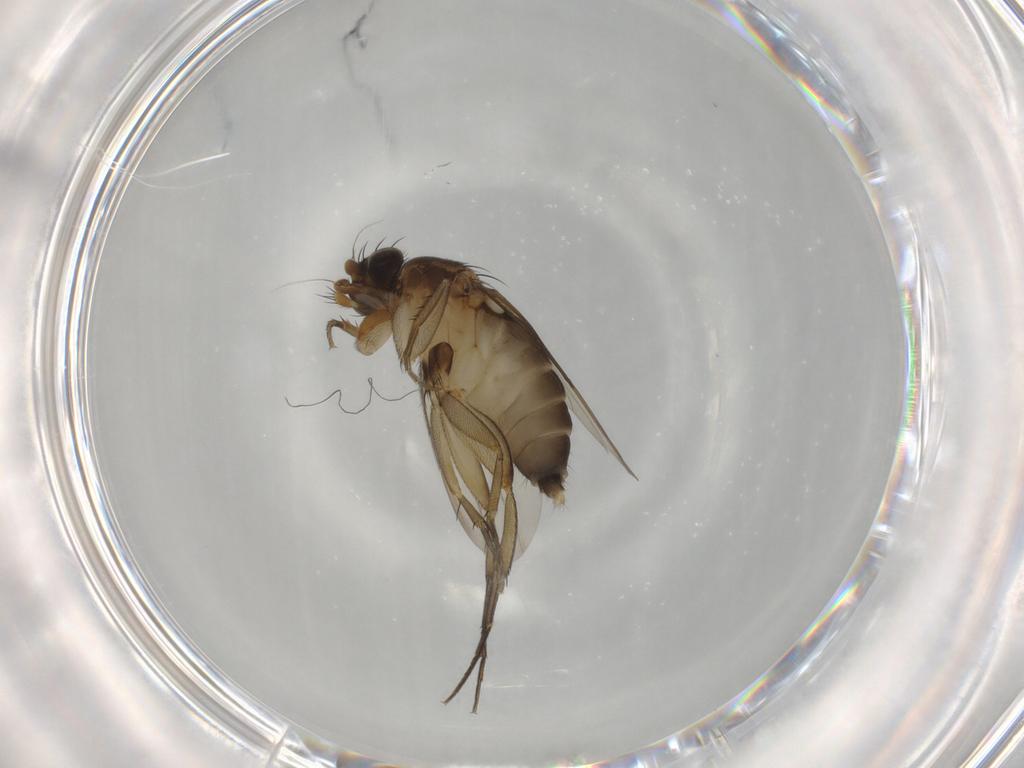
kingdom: Animalia
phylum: Arthropoda
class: Insecta
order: Diptera
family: Phoridae
